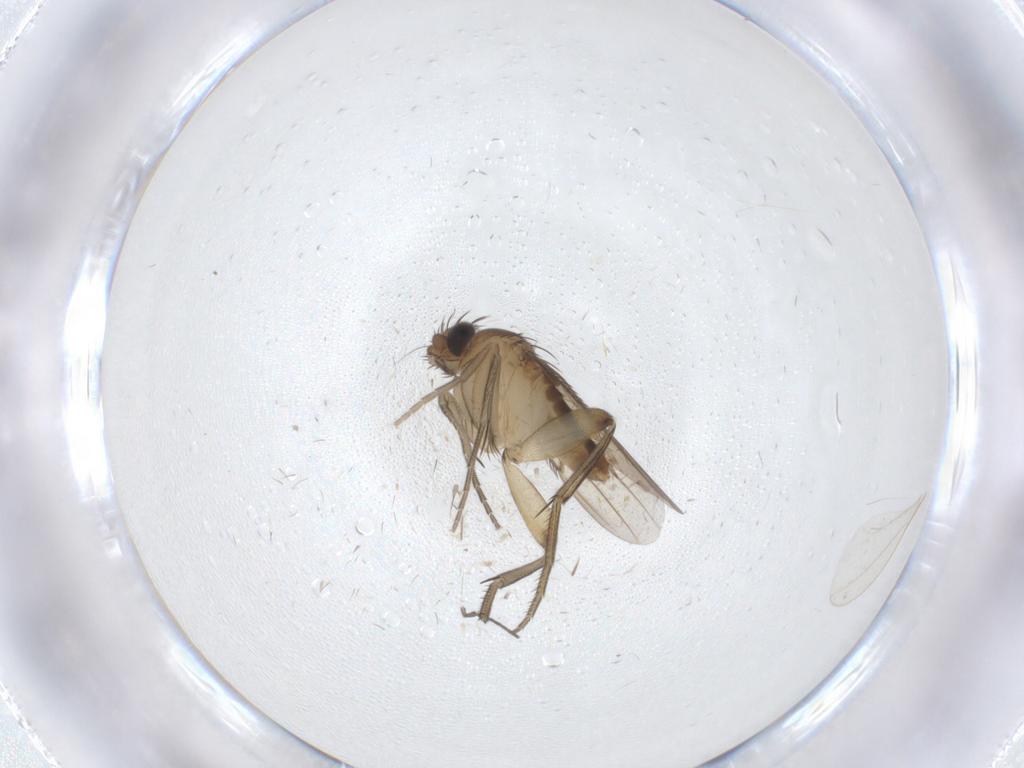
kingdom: Animalia
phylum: Arthropoda
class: Insecta
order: Diptera
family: Phoridae
